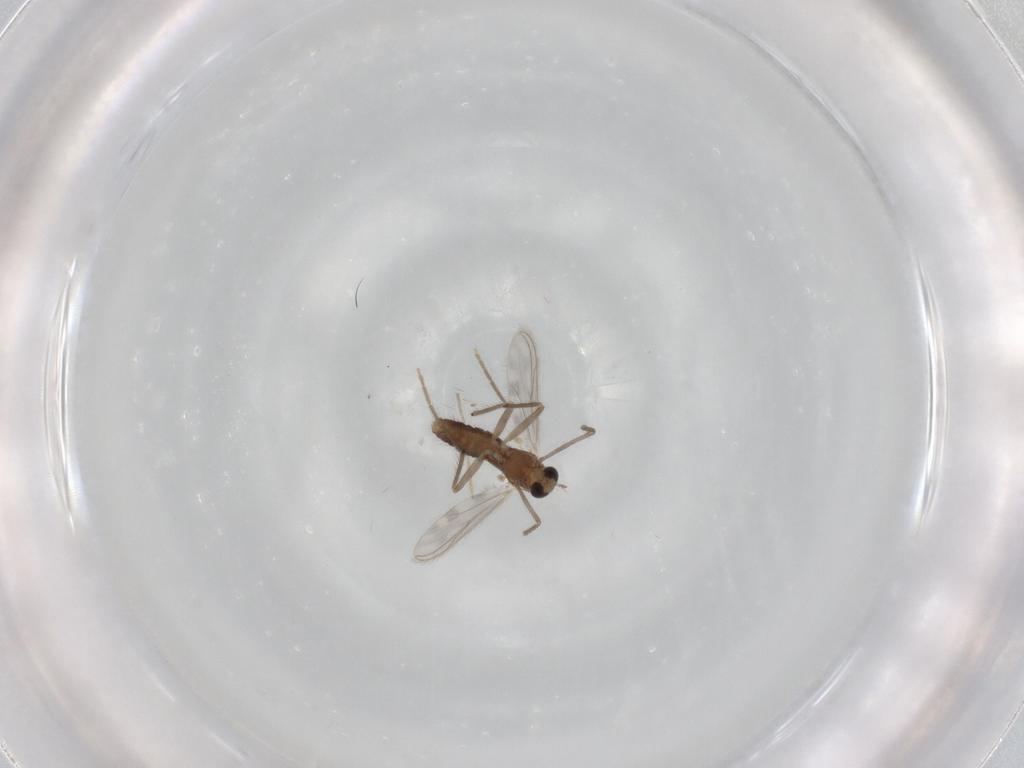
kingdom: Animalia
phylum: Arthropoda
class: Insecta
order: Diptera
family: Chironomidae
